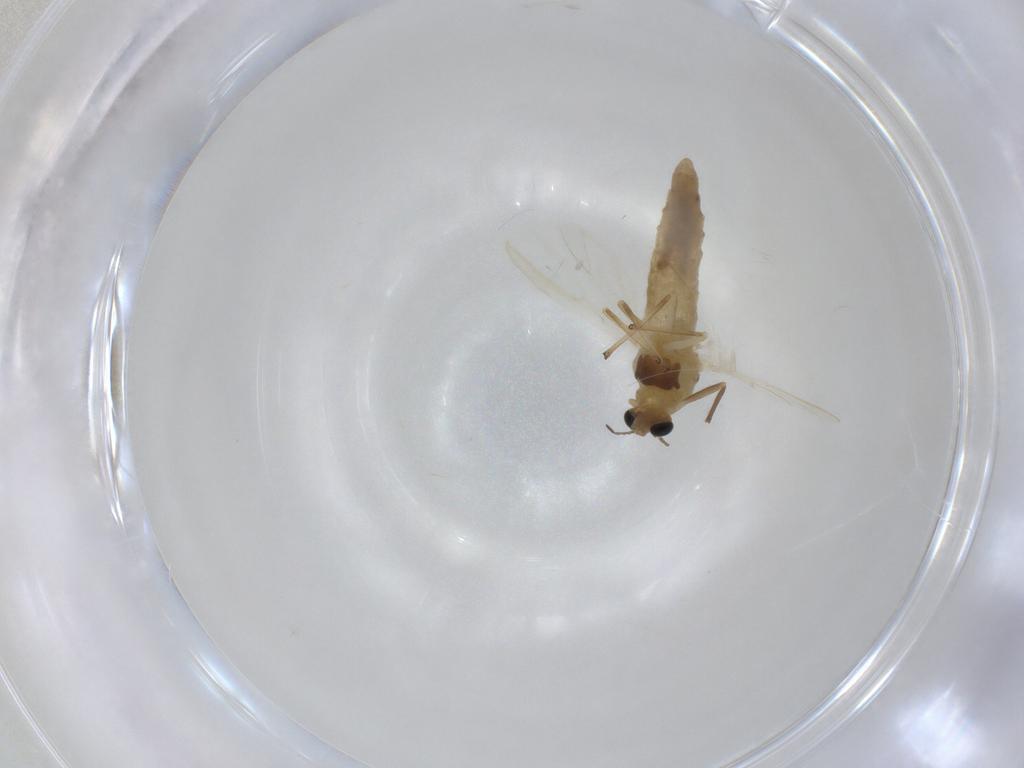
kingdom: Animalia
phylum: Arthropoda
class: Insecta
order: Diptera
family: Chironomidae
